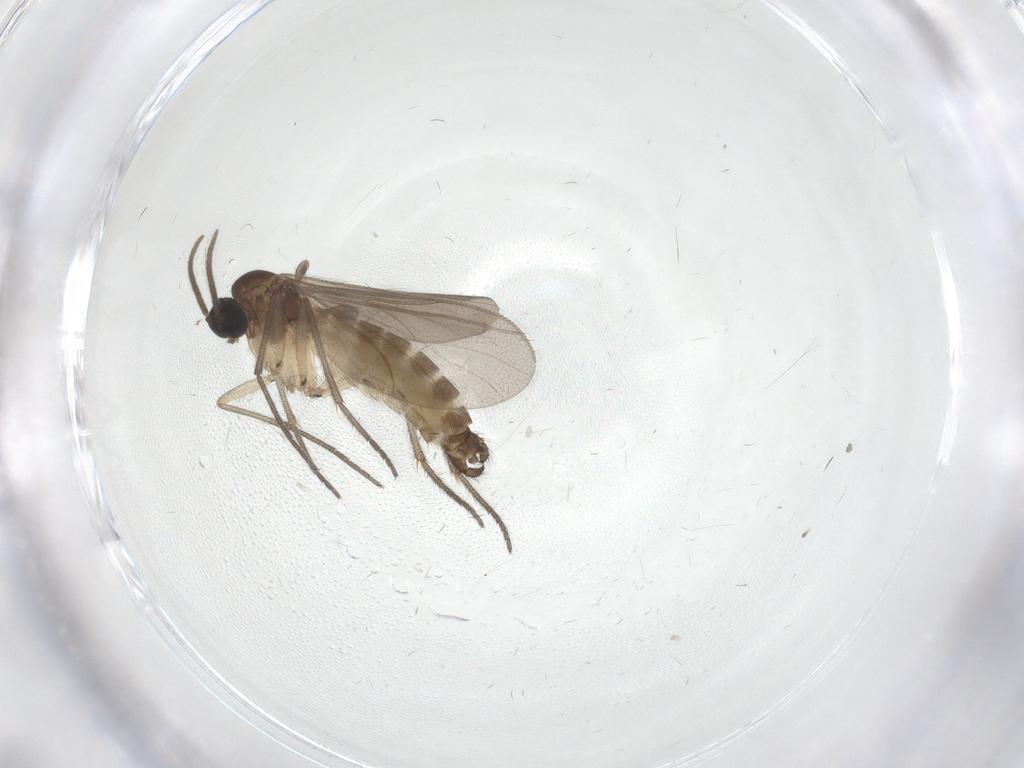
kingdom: Animalia
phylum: Arthropoda
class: Insecta
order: Diptera
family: Sciaridae
